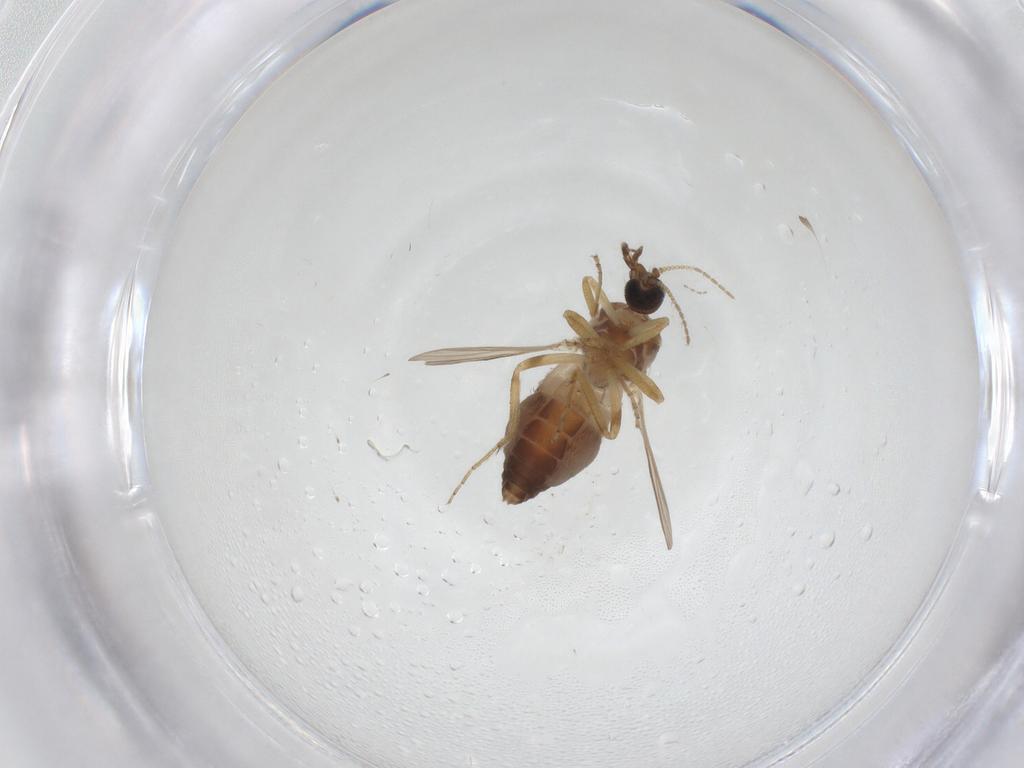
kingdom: Animalia
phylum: Arthropoda
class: Insecta
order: Diptera
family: Ceratopogonidae
